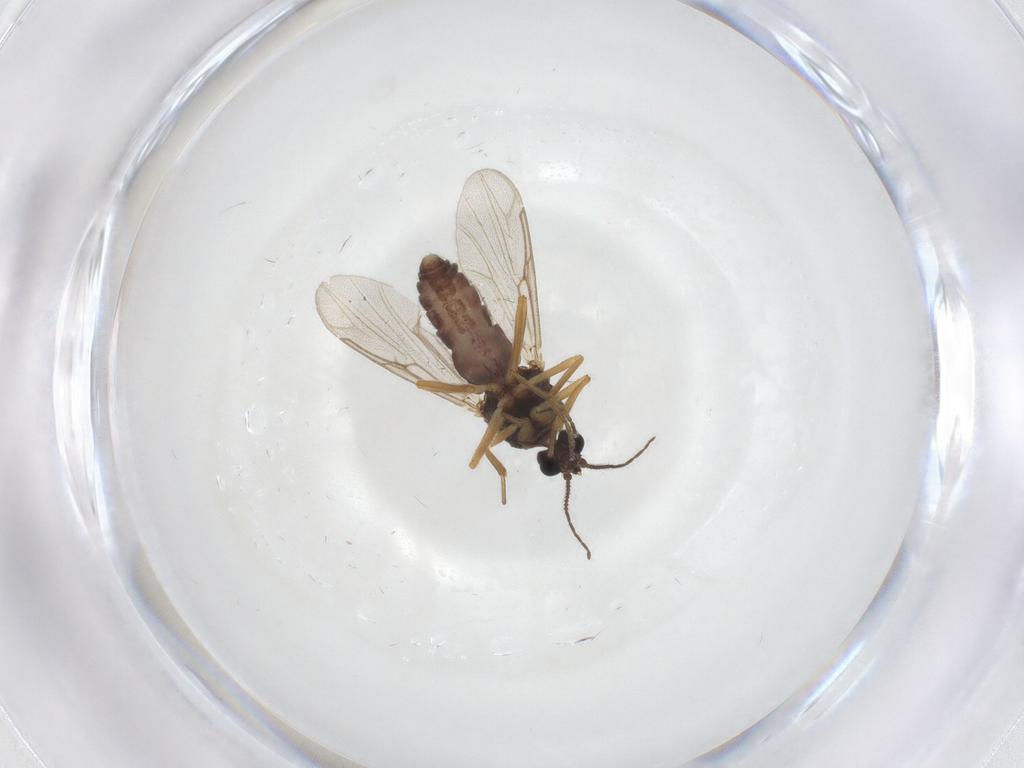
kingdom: Animalia
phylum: Arthropoda
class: Insecta
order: Diptera
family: Ceratopogonidae
